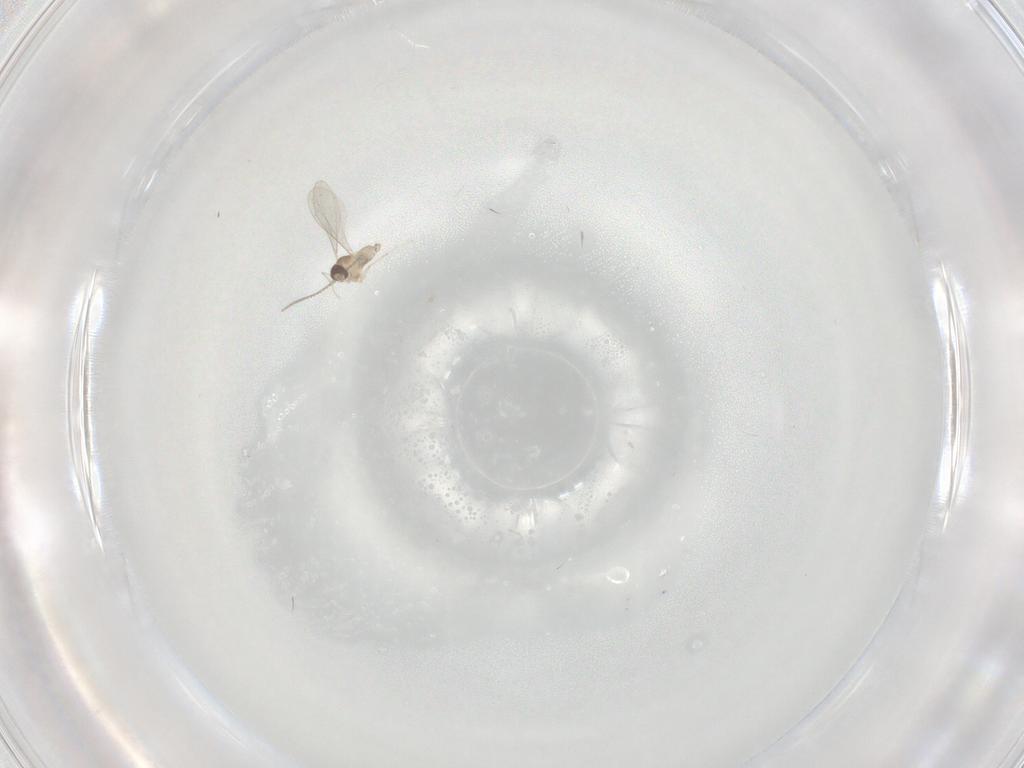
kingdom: Animalia
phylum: Arthropoda
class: Insecta
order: Diptera
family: Cecidomyiidae
